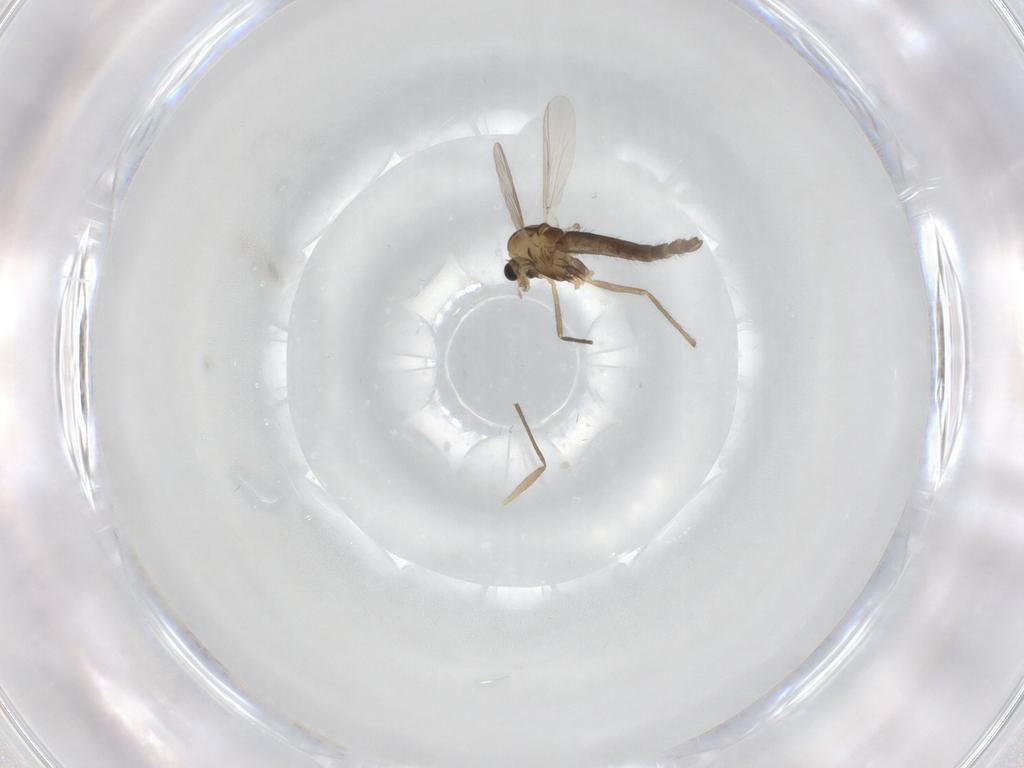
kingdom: Animalia
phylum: Arthropoda
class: Insecta
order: Diptera
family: Chironomidae
